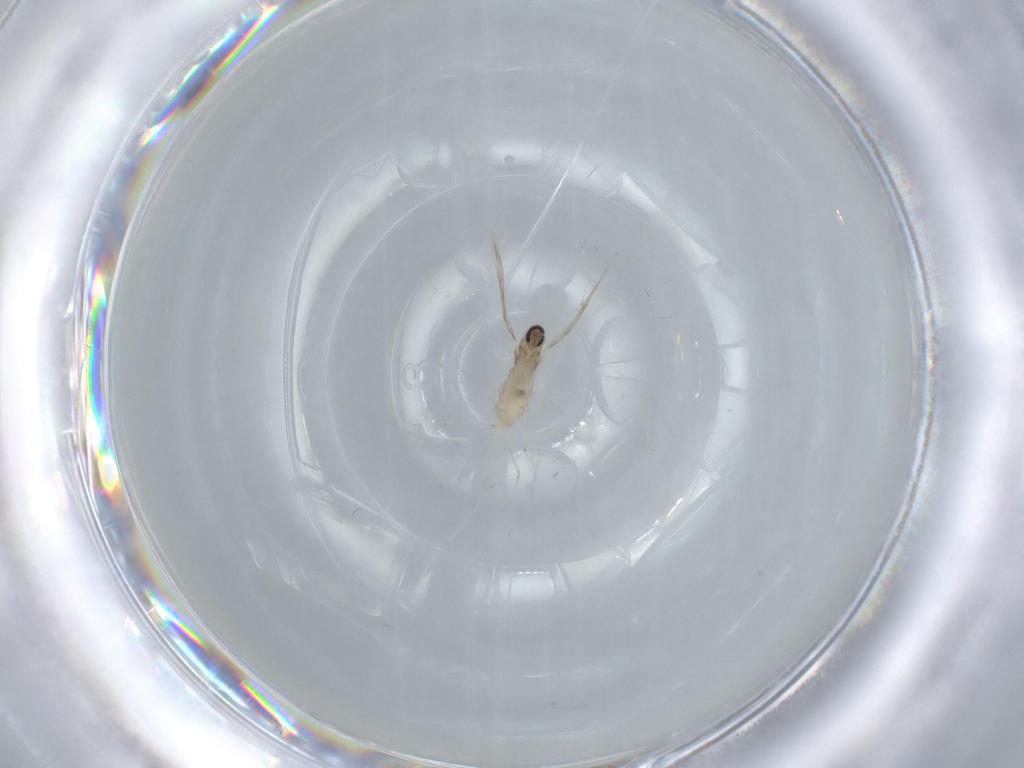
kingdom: Animalia
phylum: Arthropoda
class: Insecta
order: Diptera
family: Cecidomyiidae
